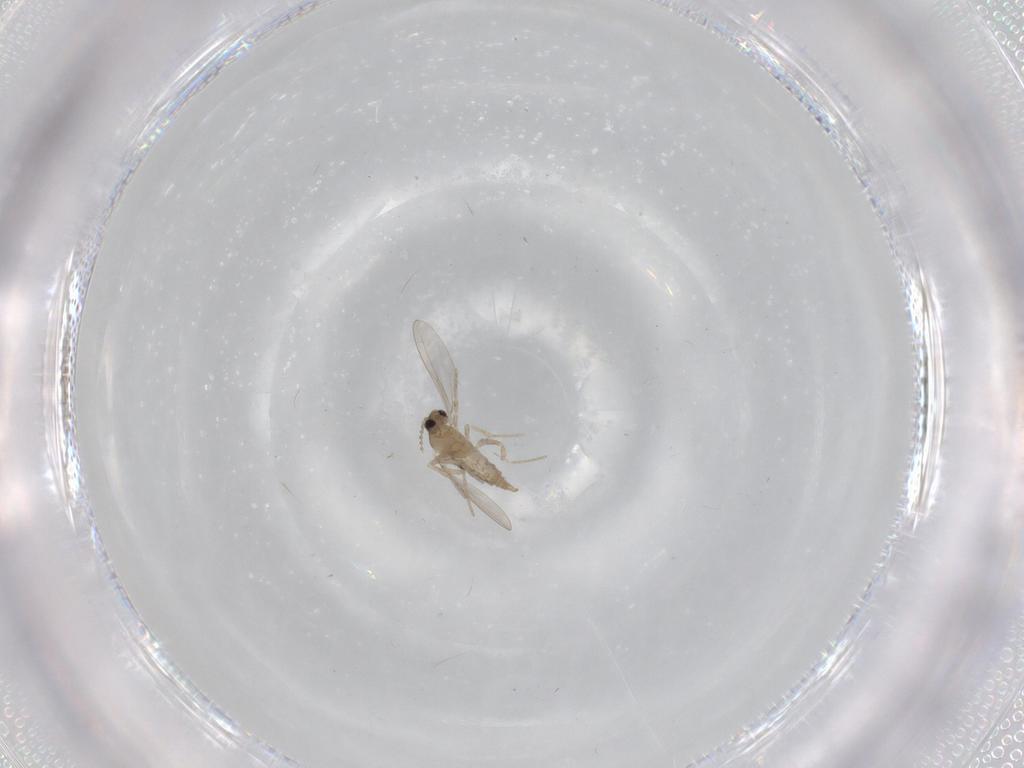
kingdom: Animalia
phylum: Arthropoda
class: Insecta
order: Diptera
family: Cecidomyiidae
